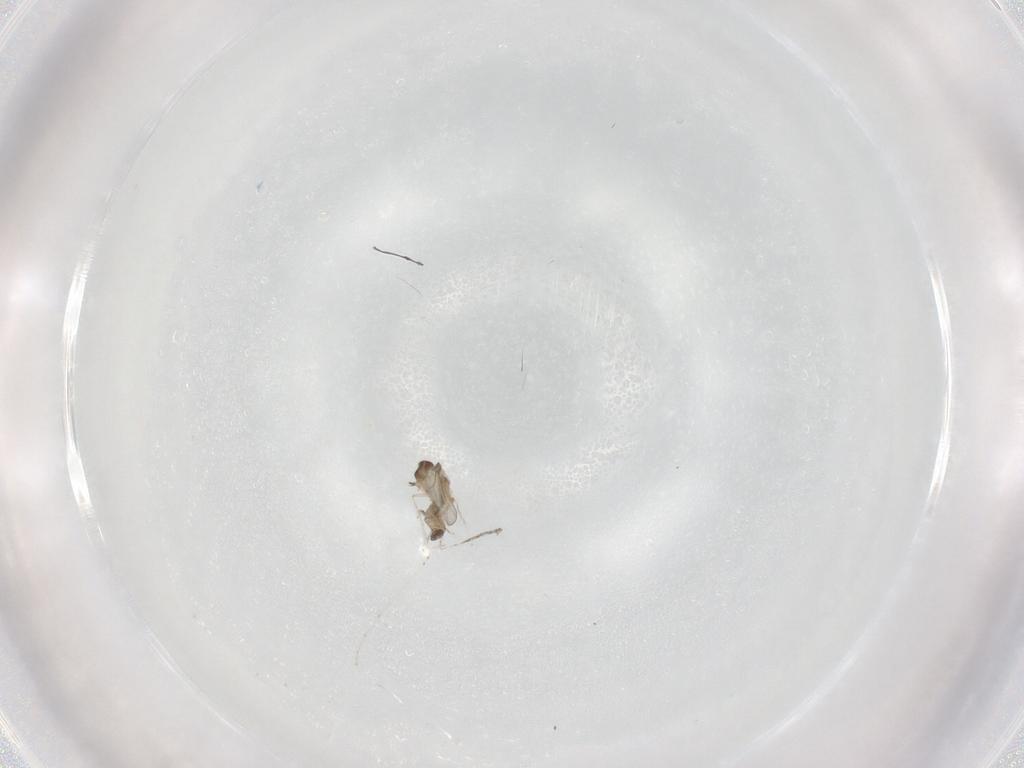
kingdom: Animalia
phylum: Arthropoda
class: Insecta
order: Diptera
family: Cecidomyiidae
